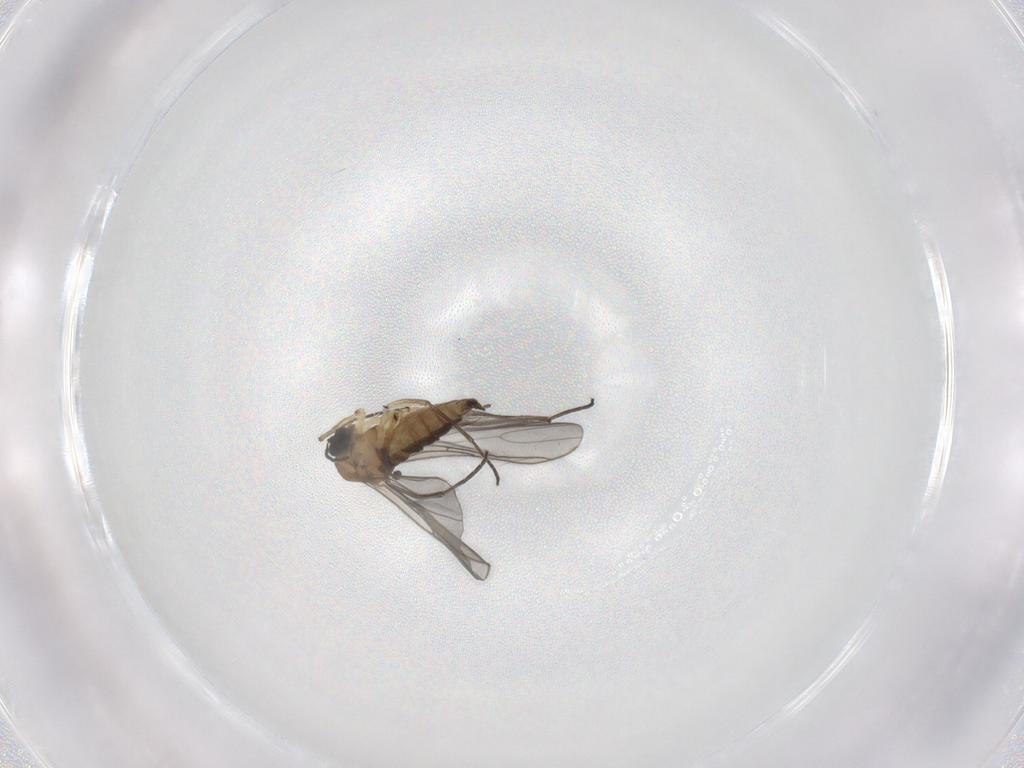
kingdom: Animalia
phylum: Arthropoda
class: Insecta
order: Diptera
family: Sciaridae
